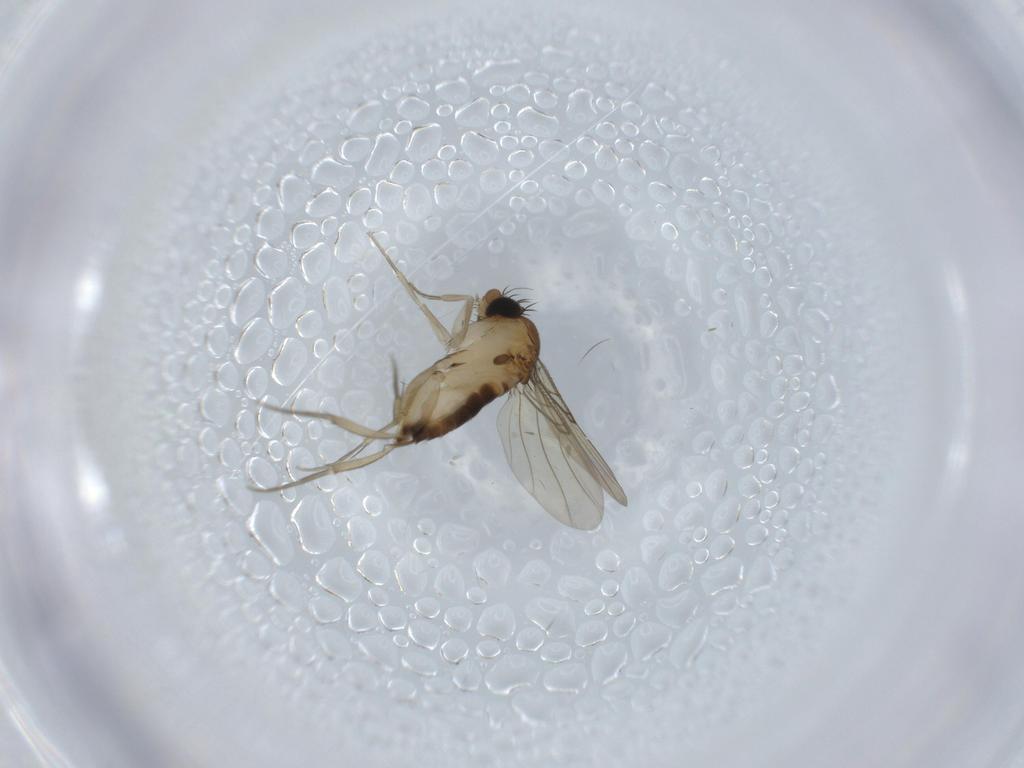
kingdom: Animalia
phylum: Arthropoda
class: Insecta
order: Diptera
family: Phoridae
